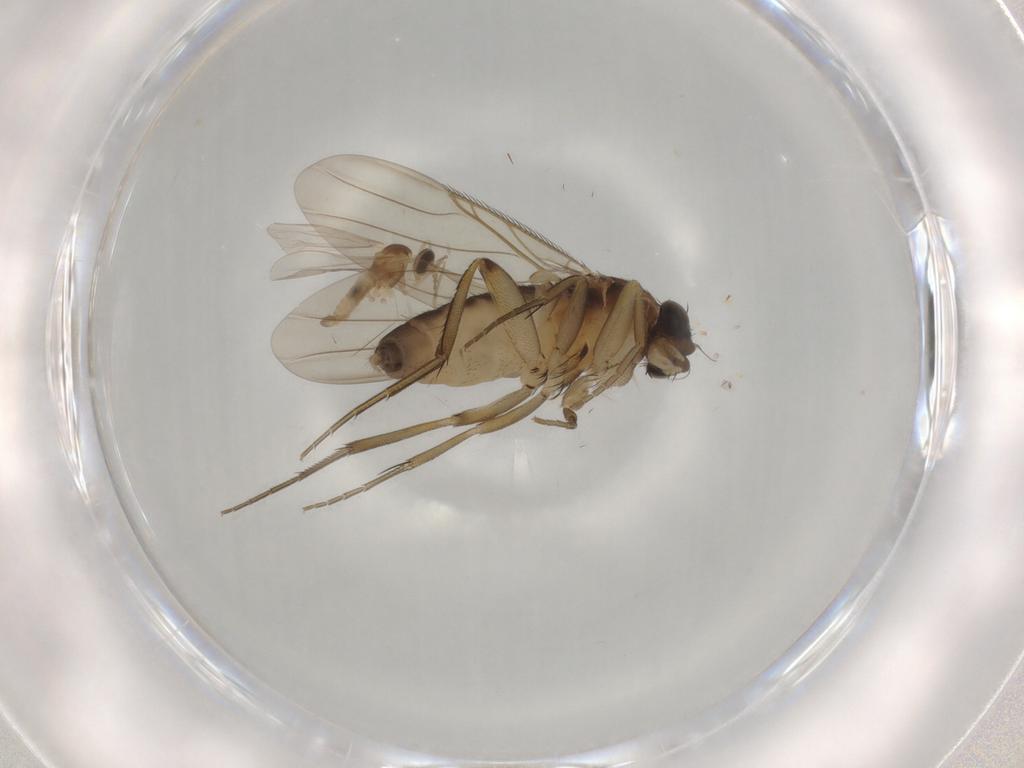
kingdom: Animalia
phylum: Arthropoda
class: Insecta
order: Diptera
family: Phoridae
